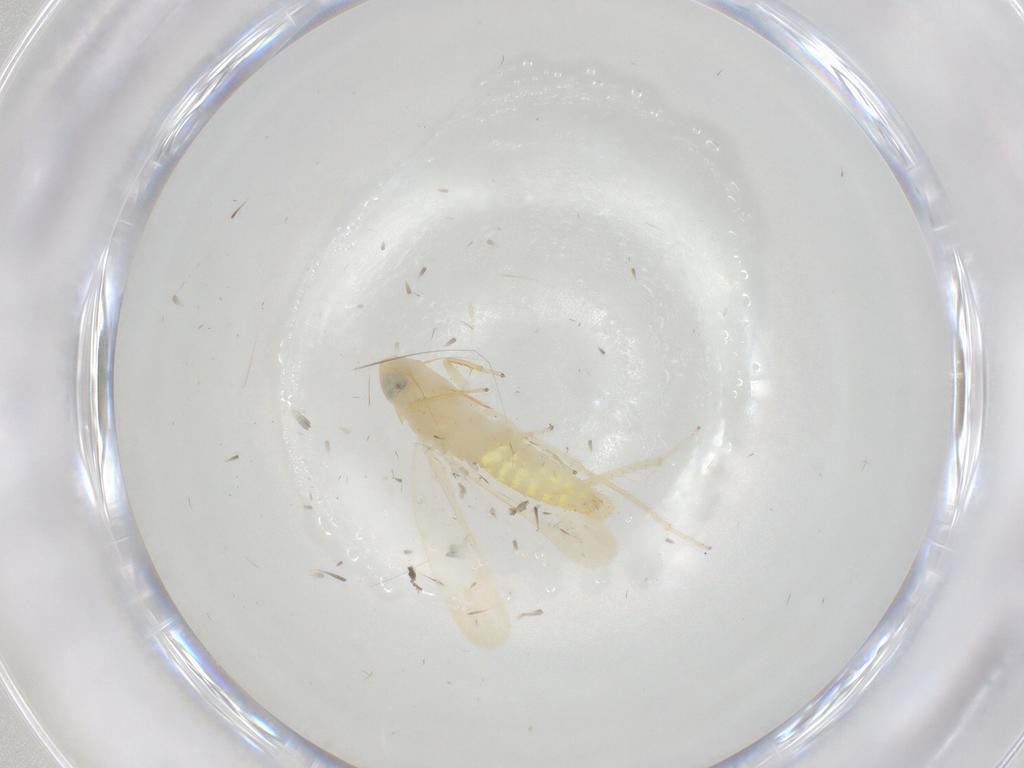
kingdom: Animalia
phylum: Arthropoda
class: Insecta
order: Hemiptera
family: Cicadellidae
